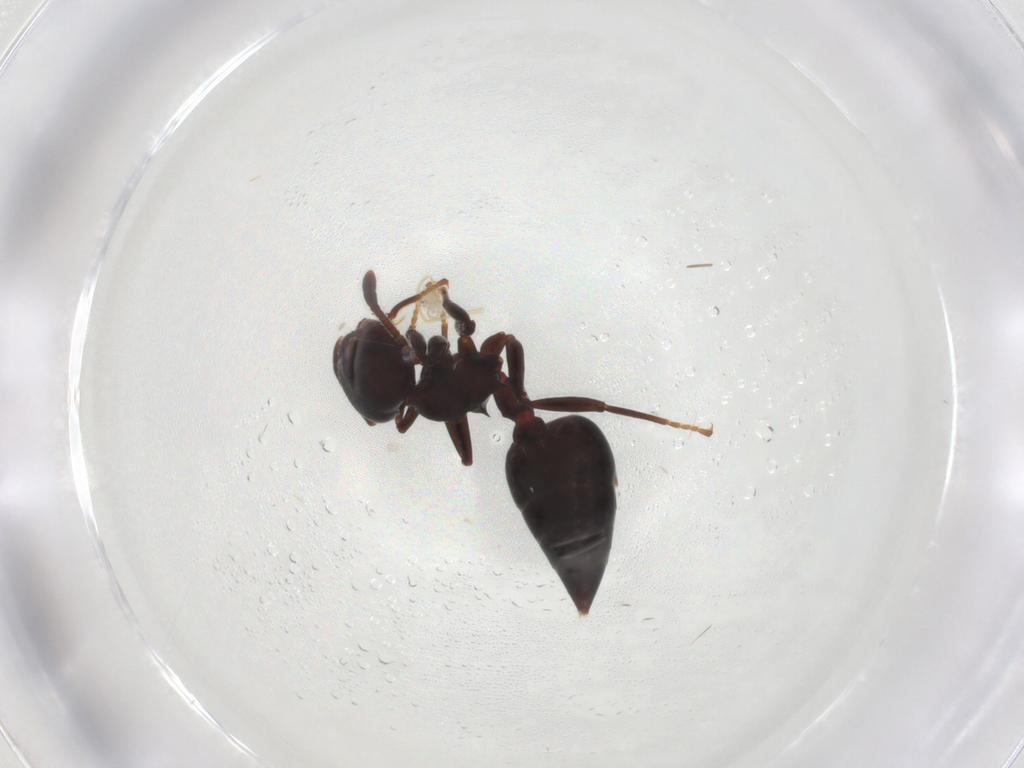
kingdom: Animalia
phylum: Arthropoda
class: Insecta
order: Hymenoptera
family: Formicidae
